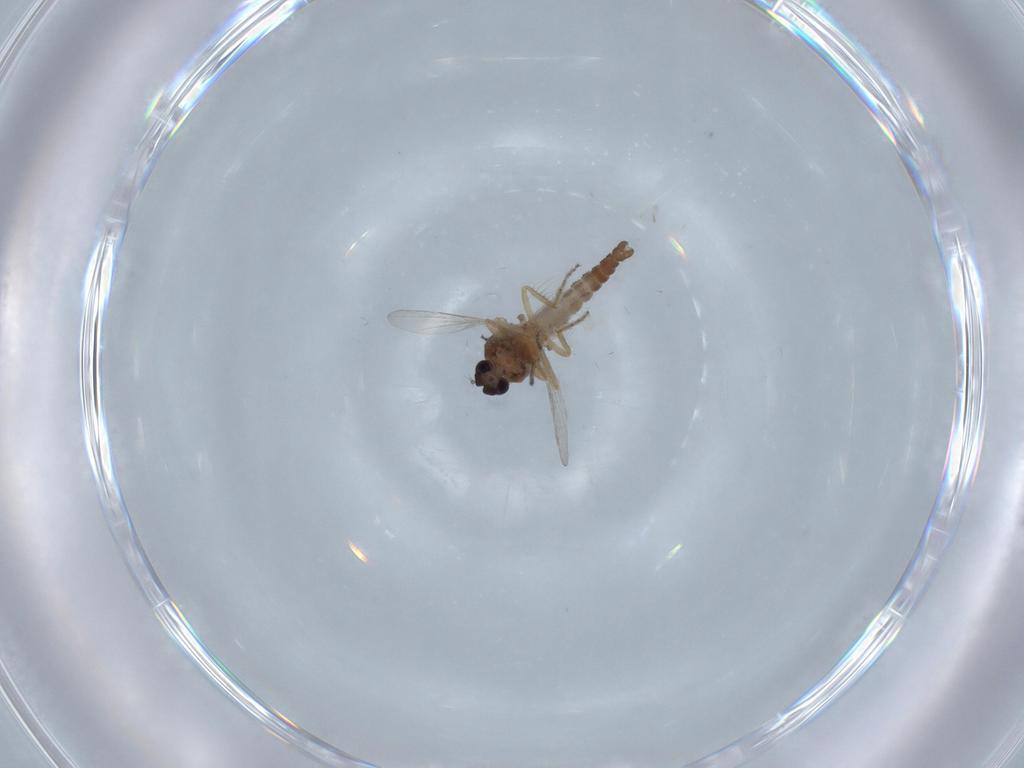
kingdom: Animalia
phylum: Arthropoda
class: Insecta
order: Diptera
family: Ceratopogonidae
